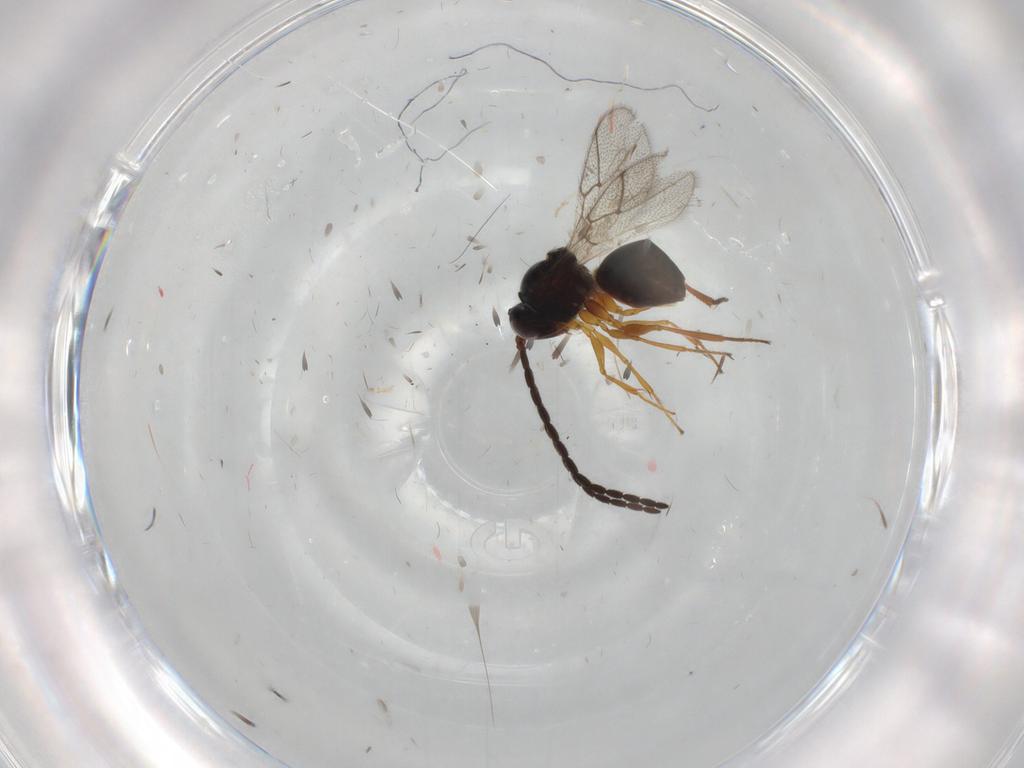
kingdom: Animalia
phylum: Arthropoda
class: Insecta
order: Hymenoptera
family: Figitidae
